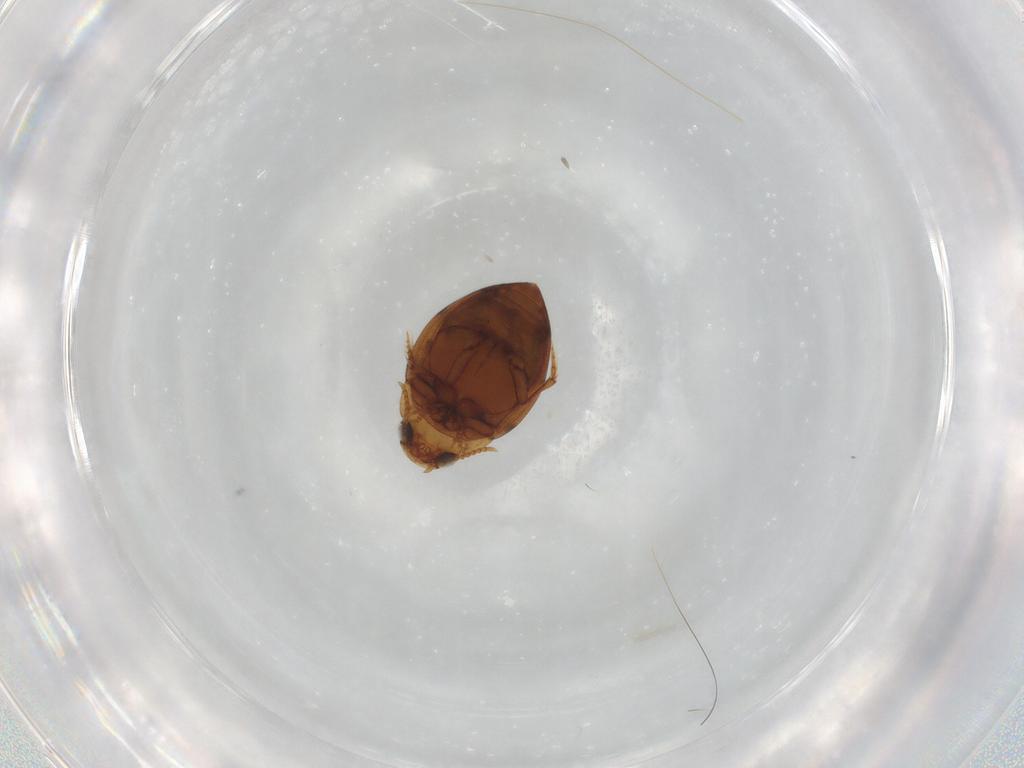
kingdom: Animalia
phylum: Arthropoda
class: Insecta
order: Coleoptera
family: Dytiscidae
